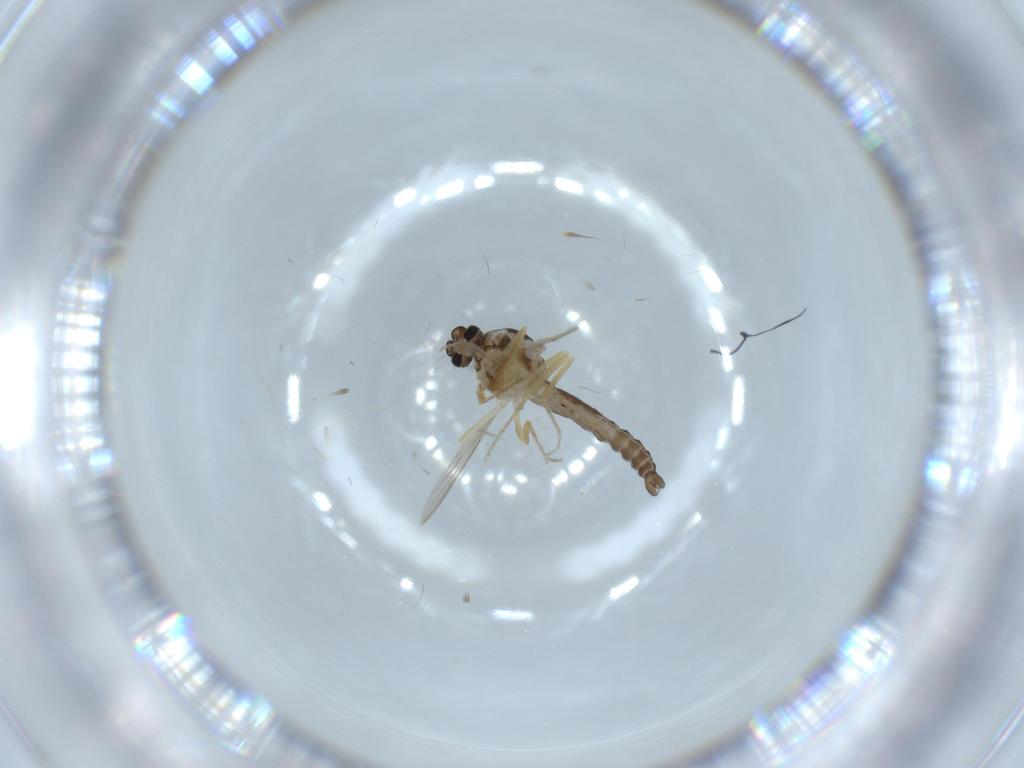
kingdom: Animalia
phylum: Arthropoda
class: Insecta
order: Diptera
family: Ceratopogonidae
